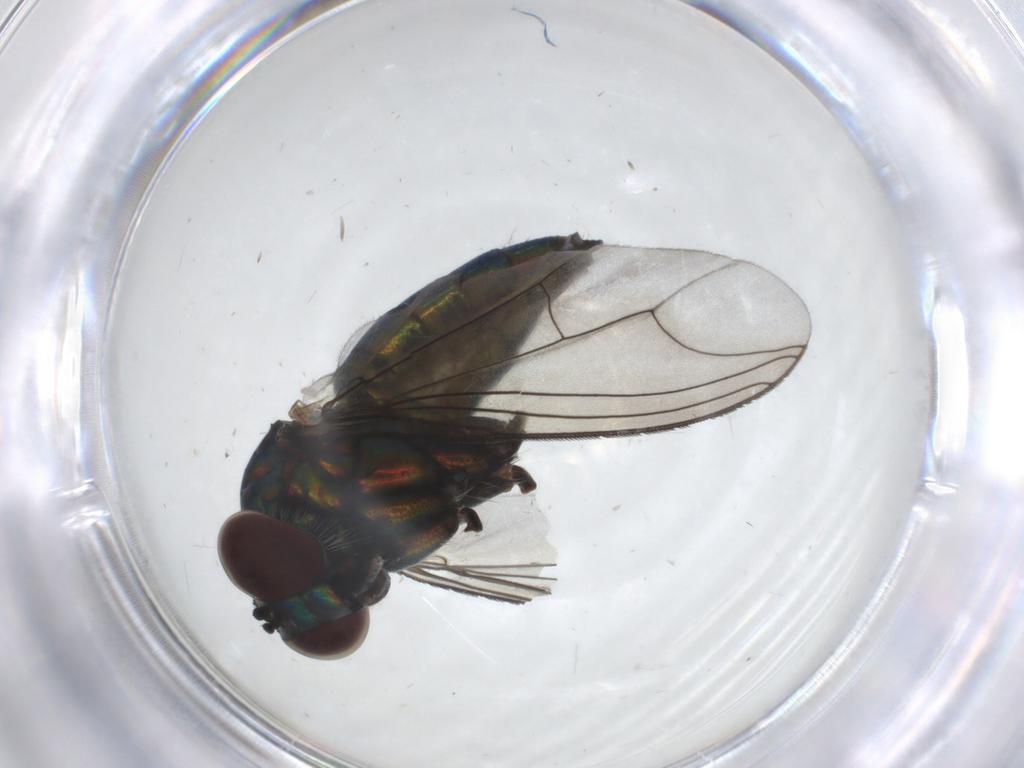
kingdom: Animalia
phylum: Arthropoda
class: Insecta
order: Diptera
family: Dolichopodidae
